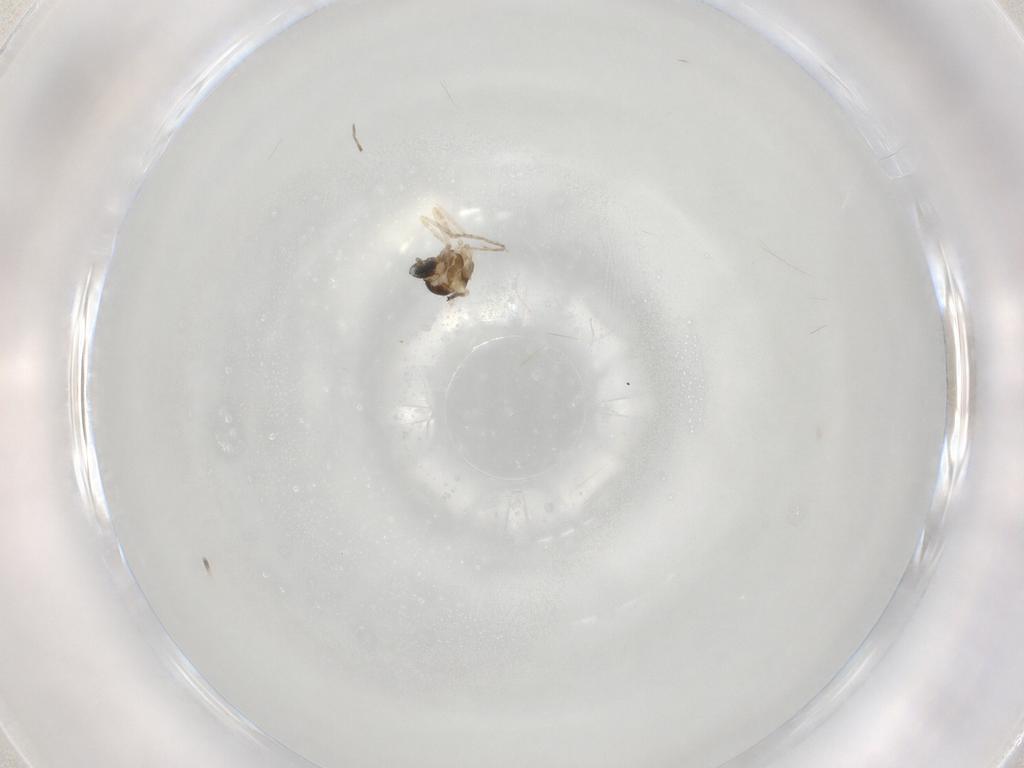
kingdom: Animalia
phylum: Arthropoda
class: Insecta
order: Diptera
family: Cecidomyiidae
